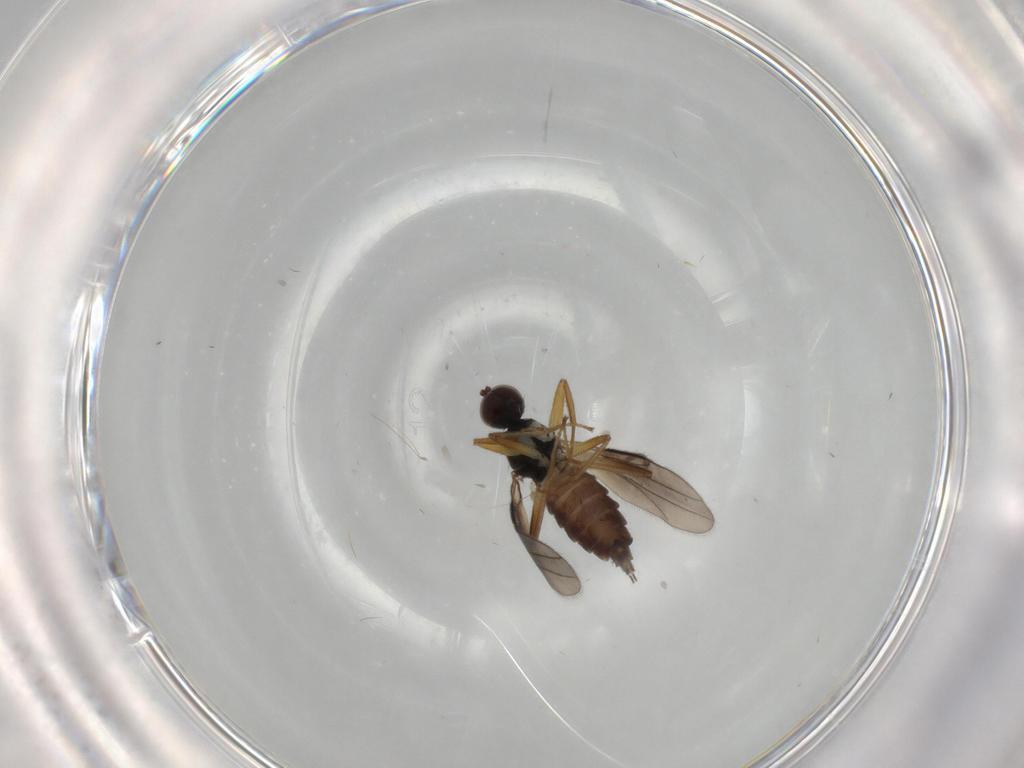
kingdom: Animalia
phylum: Arthropoda
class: Insecta
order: Diptera
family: Hybotidae
